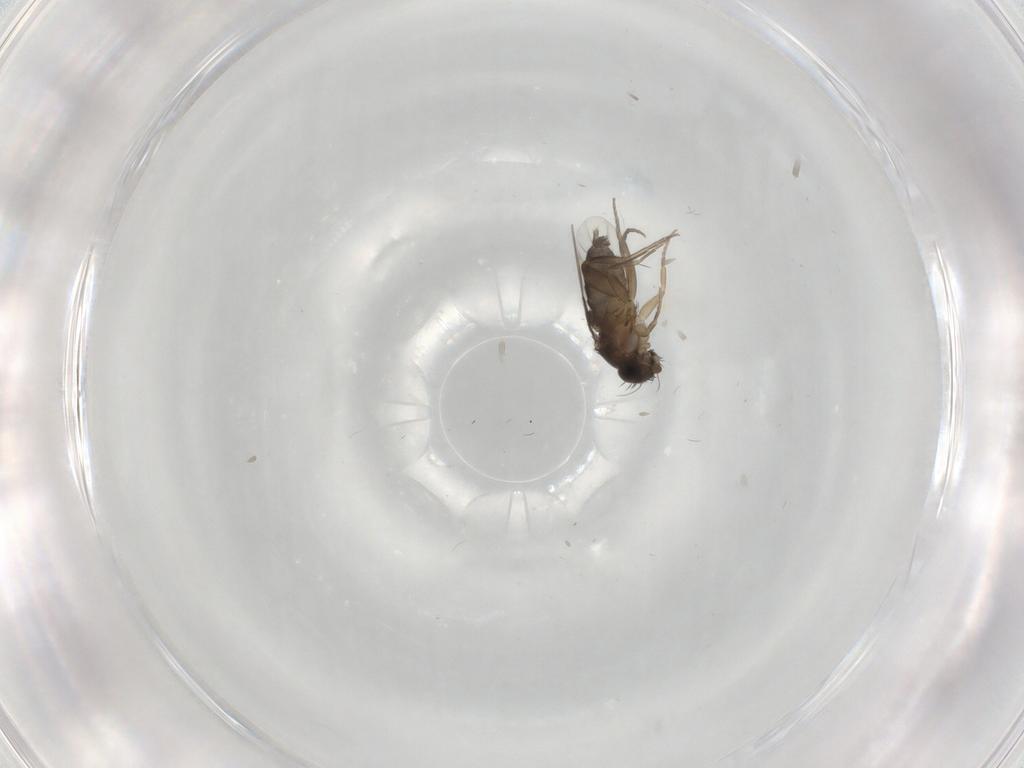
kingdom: Animalia
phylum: Arthropoda
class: Insecta
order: Diptera
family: Phoridae
